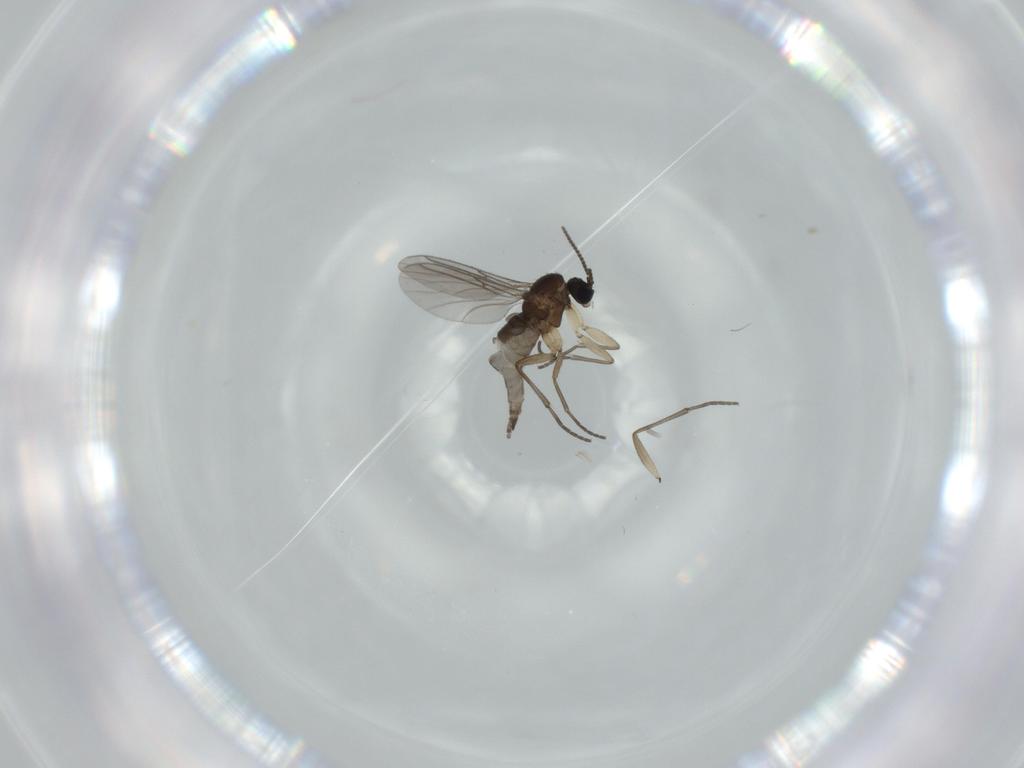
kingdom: Animalia
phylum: Arthropoda
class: Insecta
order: Diptera
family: Sciaridae
